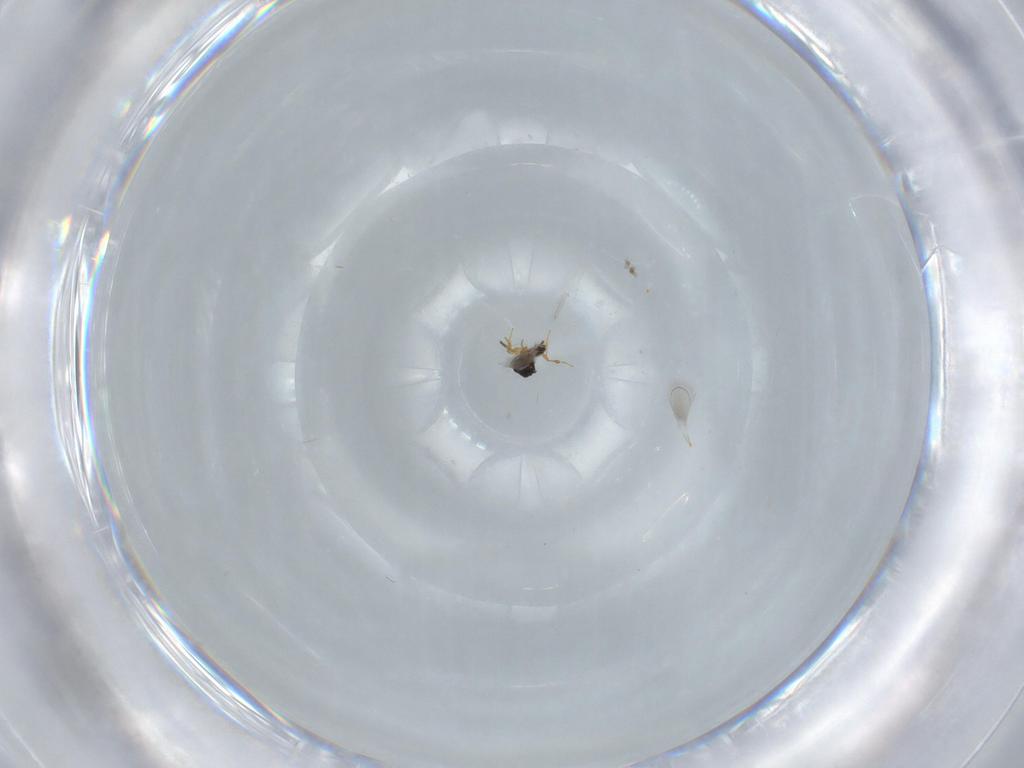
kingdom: Animalia
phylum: Arthropoda
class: Insecta
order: Hymenoptera
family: Platygastridae
